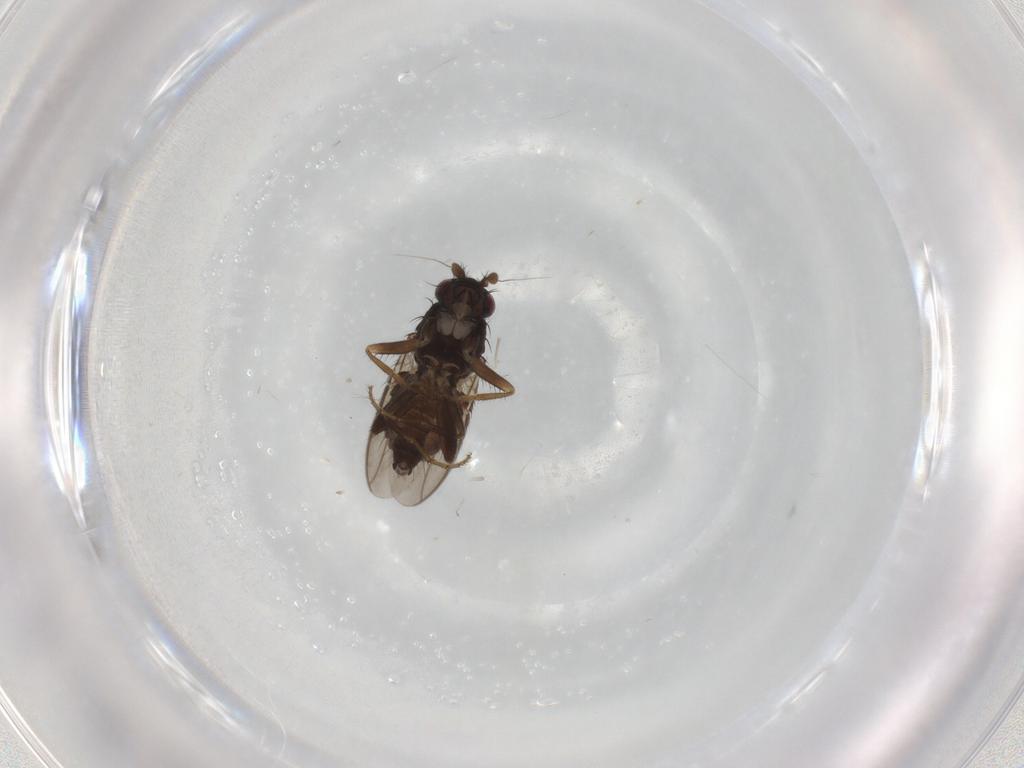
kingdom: Animalia
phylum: Arthropoda
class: Insecta
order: Diptera
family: Sphaeroceridae
